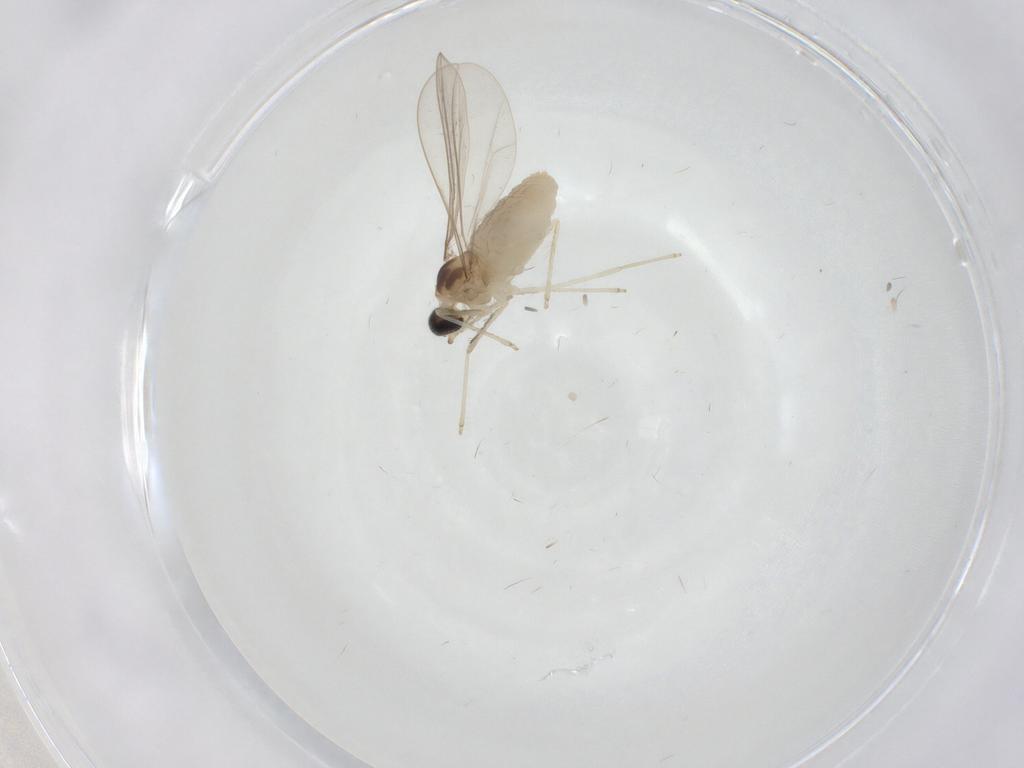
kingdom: Animalia
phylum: Arthropoda
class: Insecta
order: Diptera
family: Cecidomyiidae
